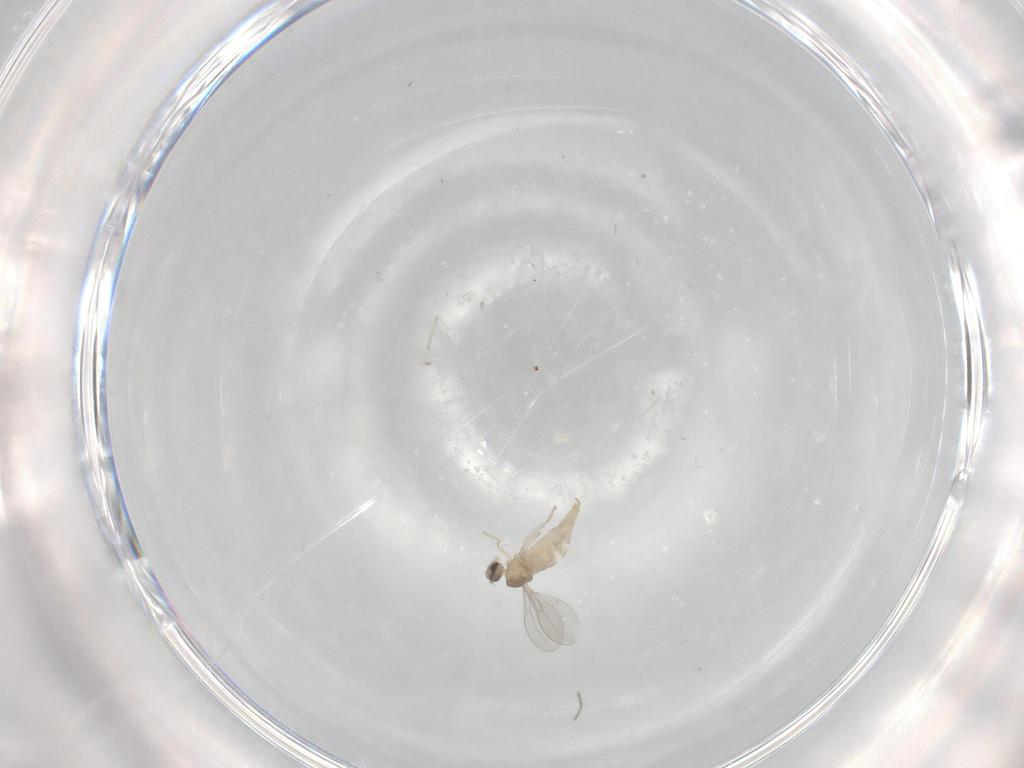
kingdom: Animalia
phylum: Arthropoda
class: Insecta
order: Diptera
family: Cecidomyiidae
